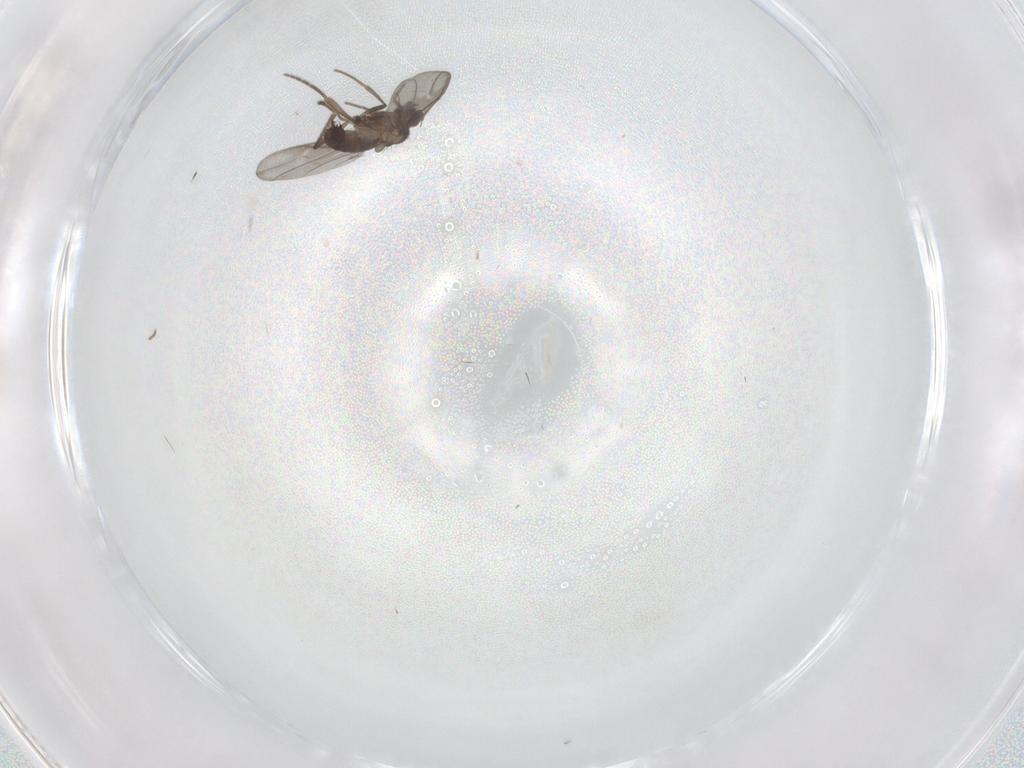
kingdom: Animalia
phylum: Arthropoda
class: Insecta
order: Diptera
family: Phoridae
